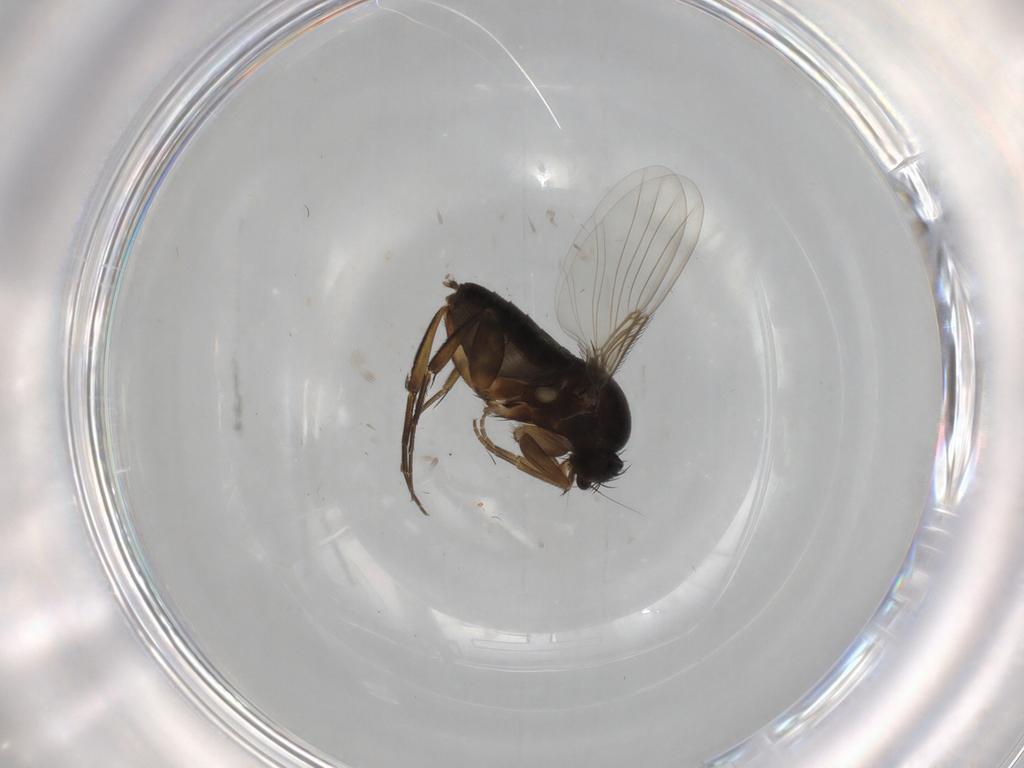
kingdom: Animalia
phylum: Arthropoda
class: Insecta
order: Diptera
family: Phoridae
